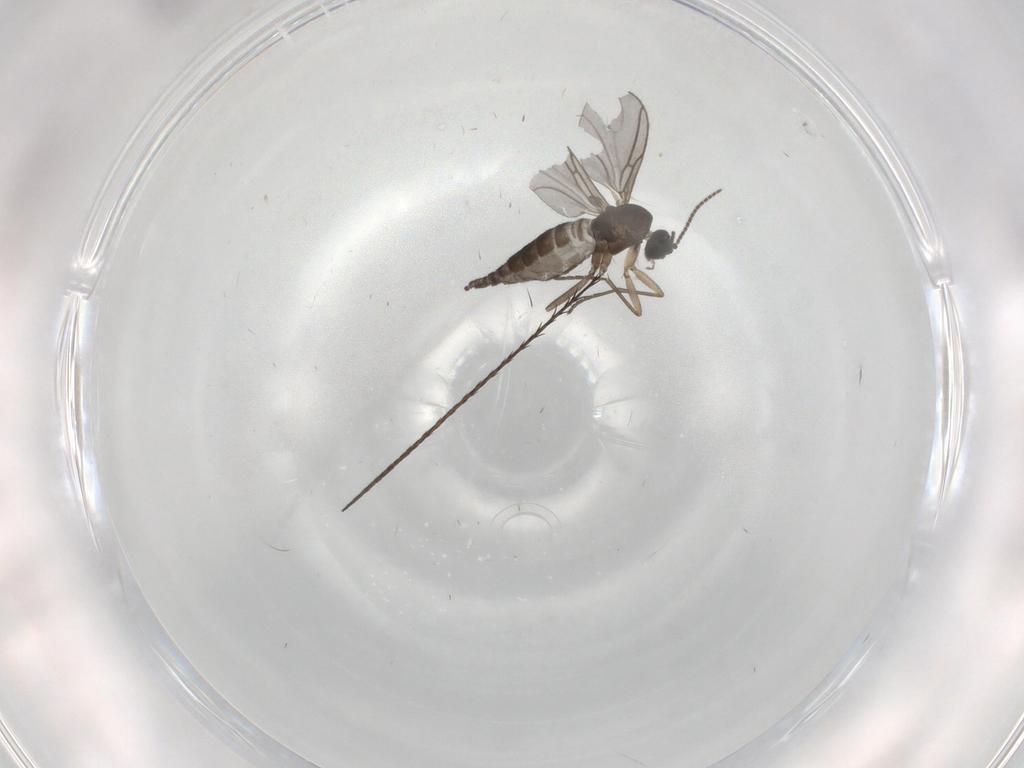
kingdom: Animalia
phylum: Arthropoda
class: Insecta
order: Diptera
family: Sciaridae
